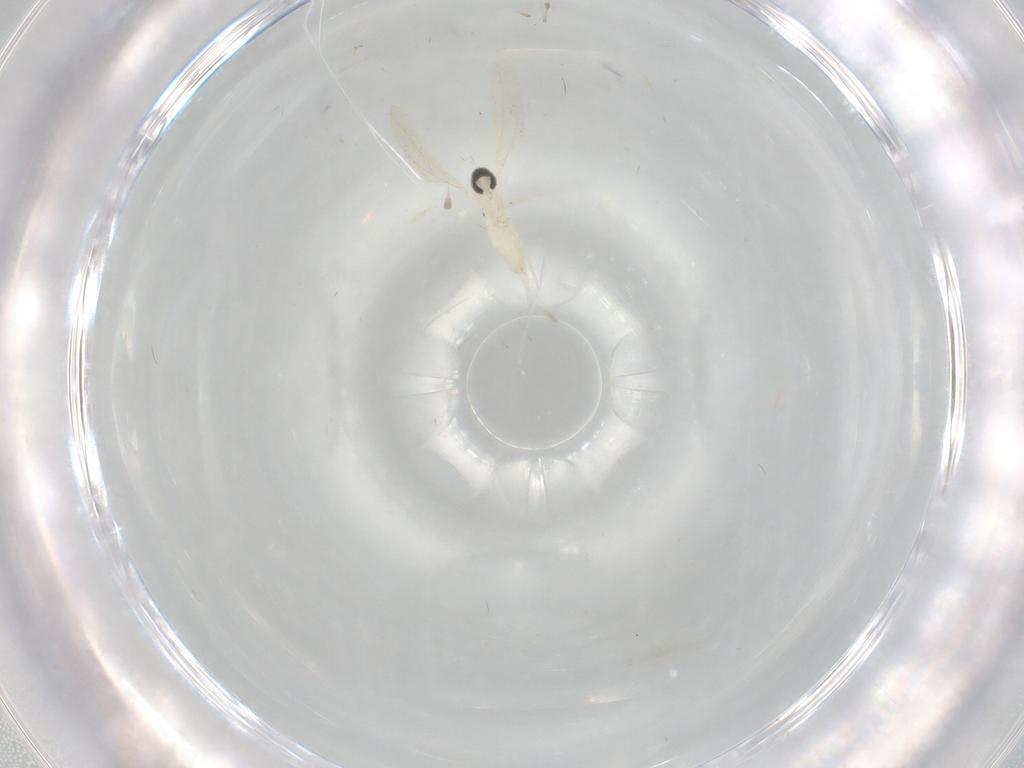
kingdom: Animalia
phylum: Arthropoda
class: Insecta
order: Diptera
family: Cecidomyiidae
